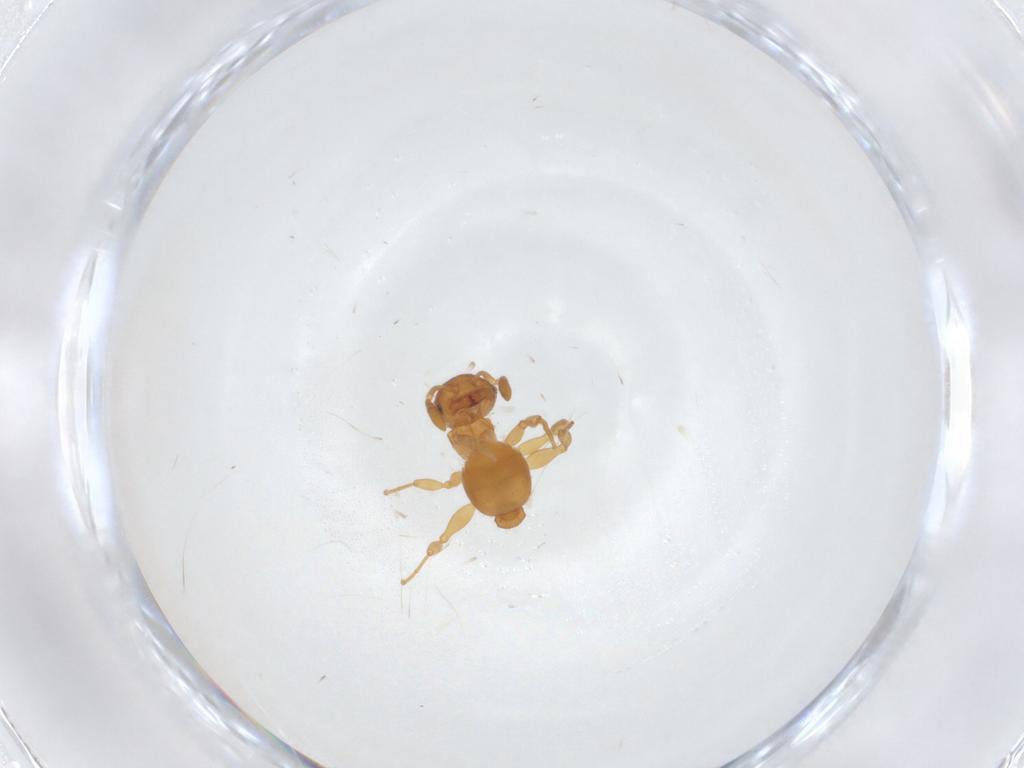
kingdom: Animalia
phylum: Arthropoda
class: Insecta
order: Hymenoptera
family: Formicidae
